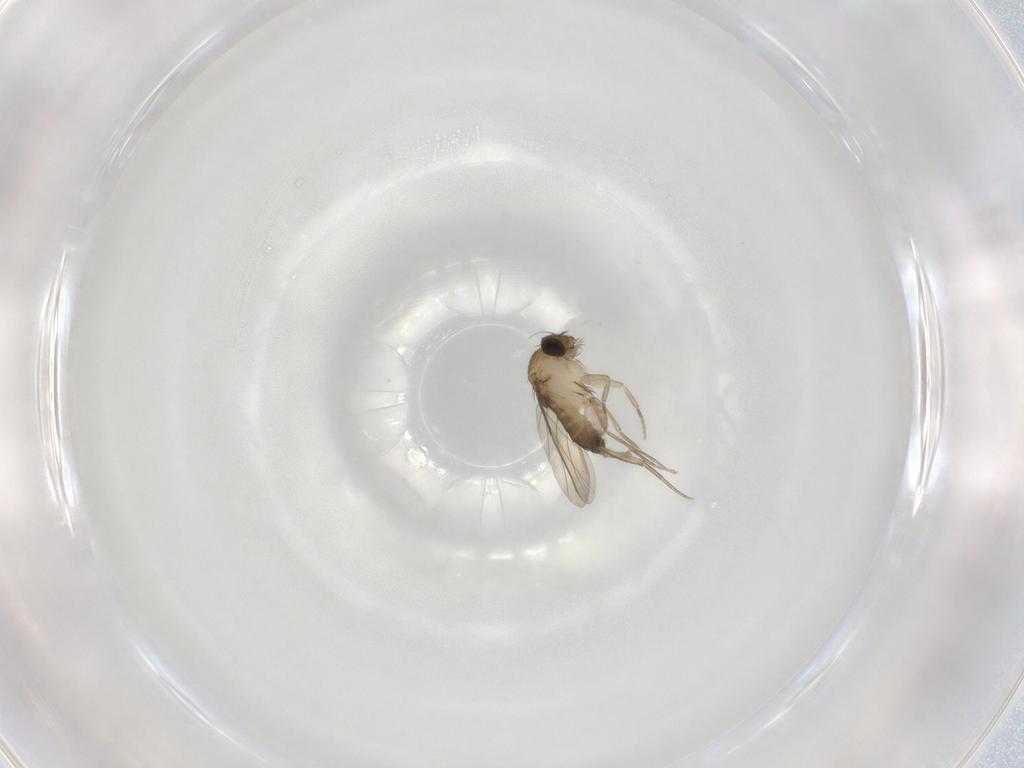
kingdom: Animalia
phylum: Arthropoda
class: Insecta
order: Diptera
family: Phoridae
